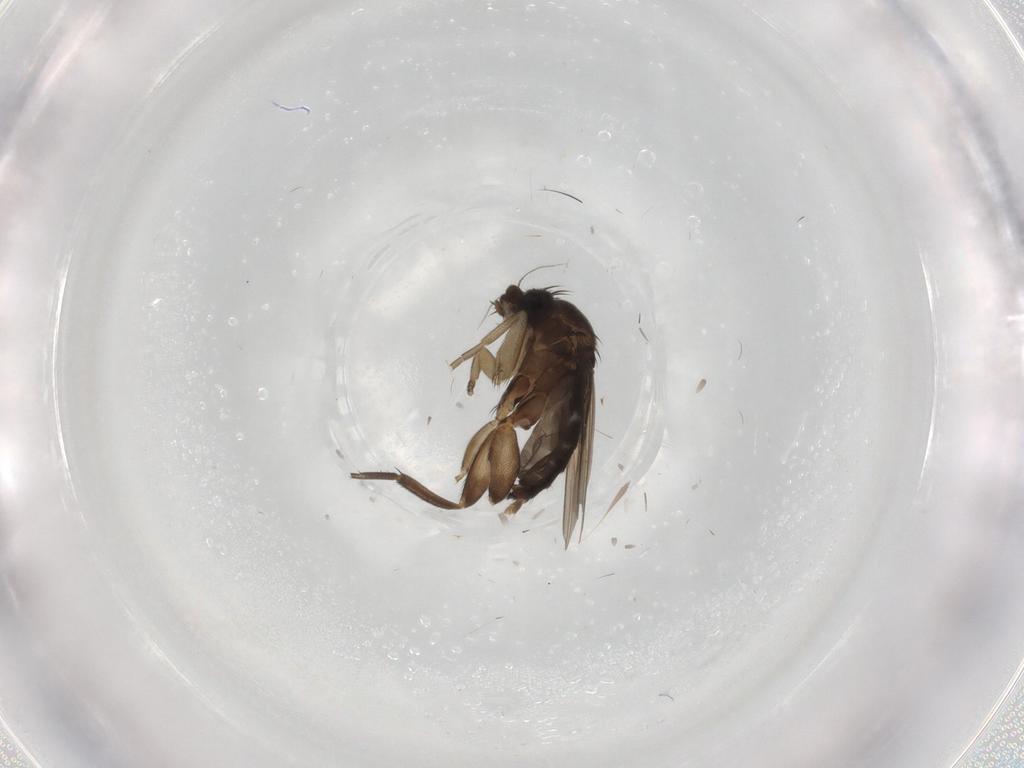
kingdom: Animalia
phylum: Arthropoda
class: Insecta
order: Diptera
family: Phoridae
